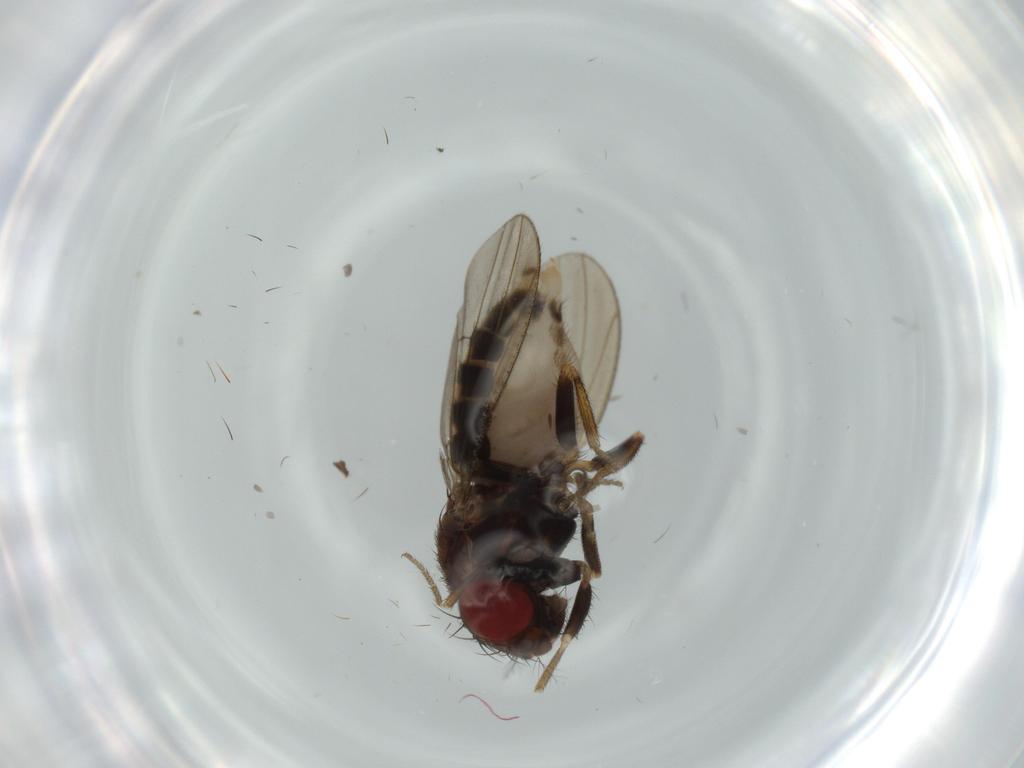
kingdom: Animalia
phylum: Arthropoda
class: Insecta
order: Diptera
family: Drosophilidae
